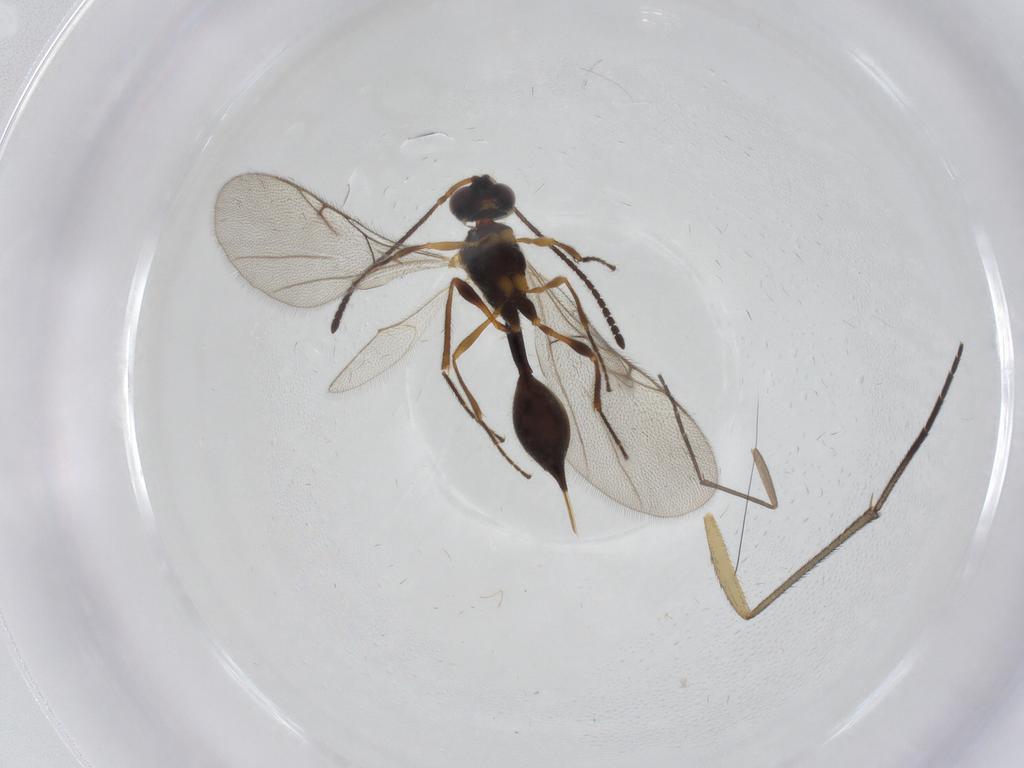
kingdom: Animalia
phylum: Arthropoda
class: Insecta
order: Hymenoptera
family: Diapriidae
